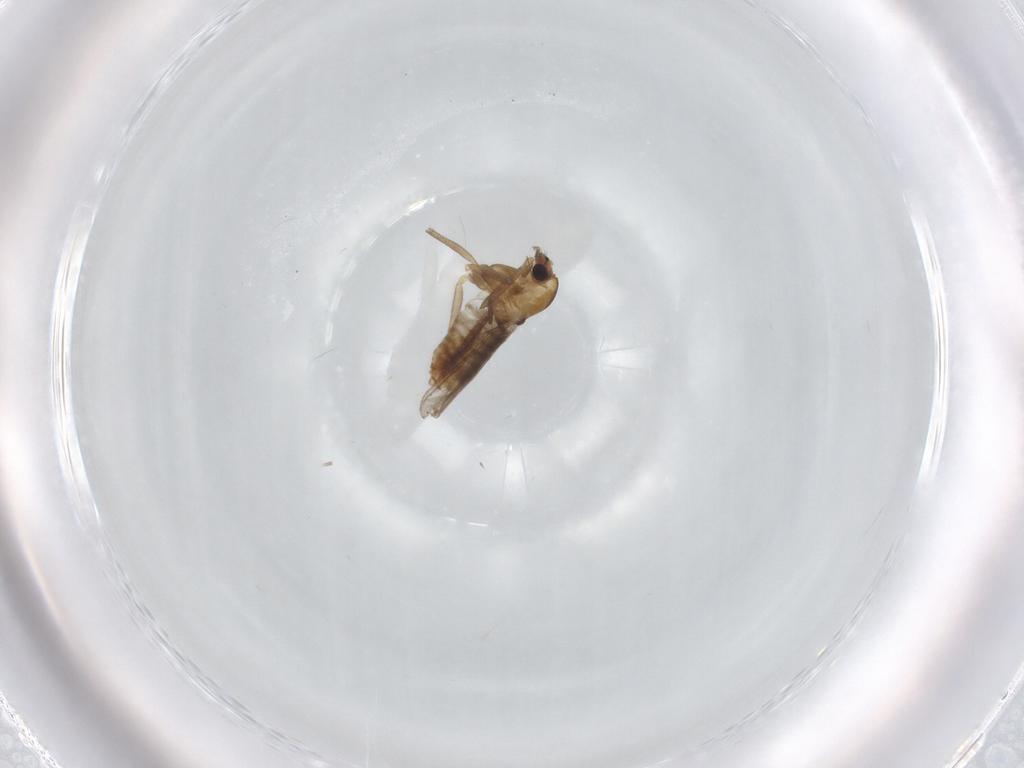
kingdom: Animalia
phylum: Arthropoda
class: Insecta
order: Diptera
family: Chironomidae
